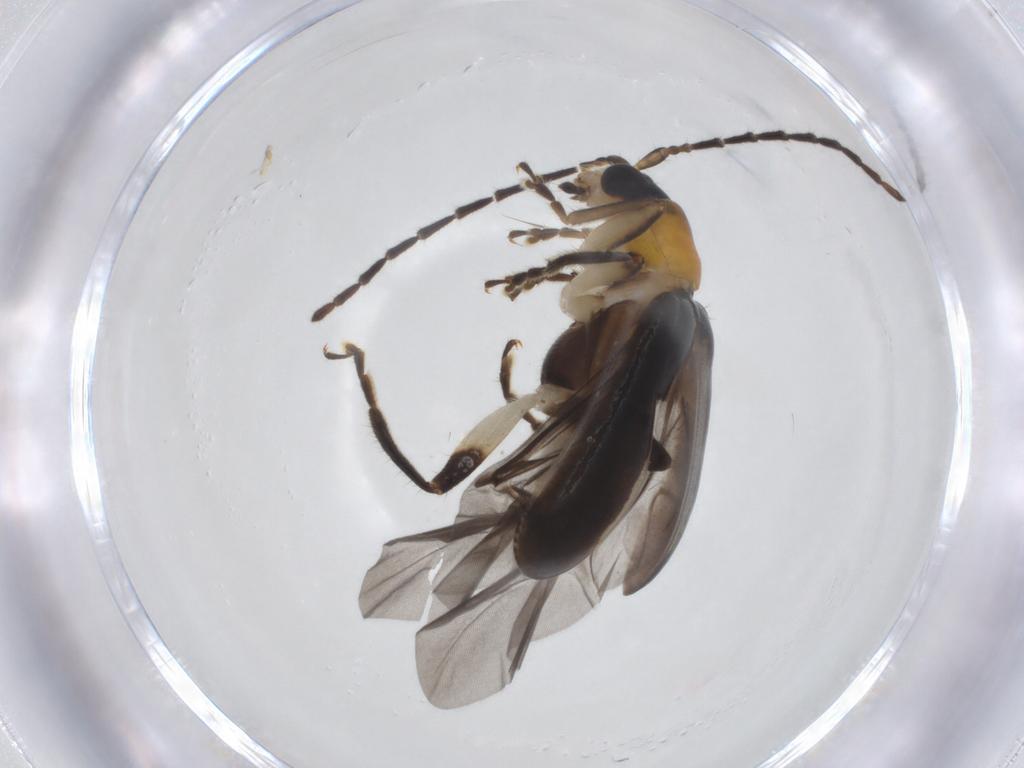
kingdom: Animalia
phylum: Arthropoda
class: Insecta
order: Coleoptera
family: Chrysomelidae
